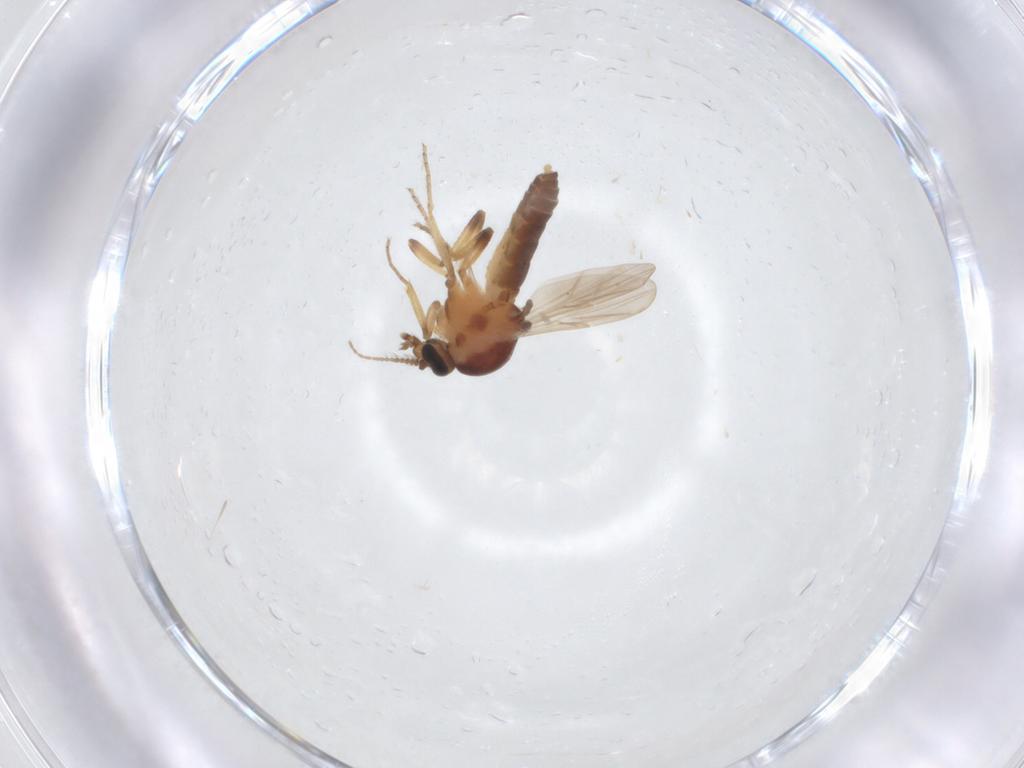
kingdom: Animalia
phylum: Arthropoda
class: Insecta
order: Diptera
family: Ceratopogonidae
